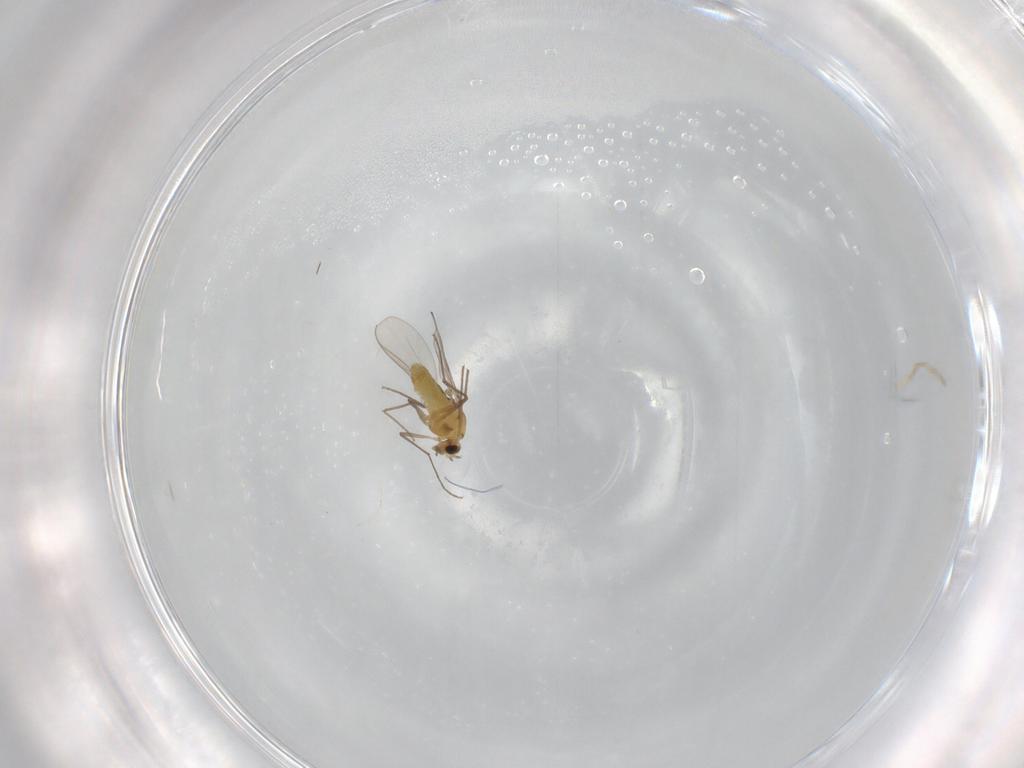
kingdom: Animalia
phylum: Arthropoda
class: Insecta
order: Diptera
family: Chironomidae
